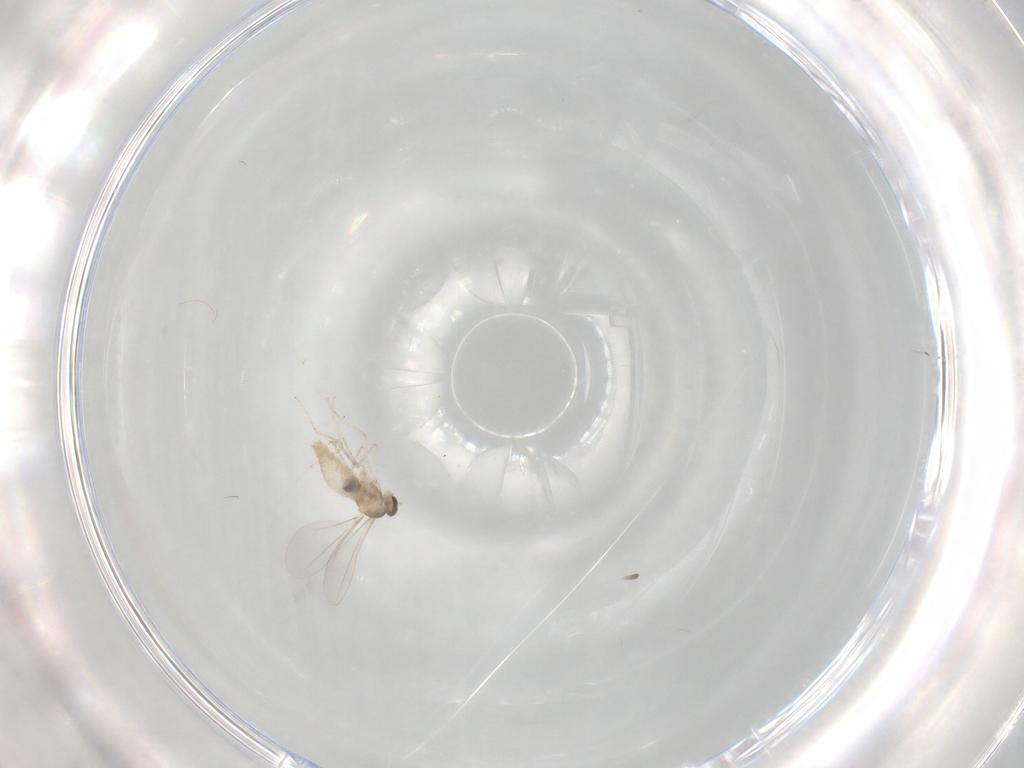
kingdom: Animalia
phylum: Arthropoda
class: Insecta
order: Diptera
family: Cecidomyiidae
